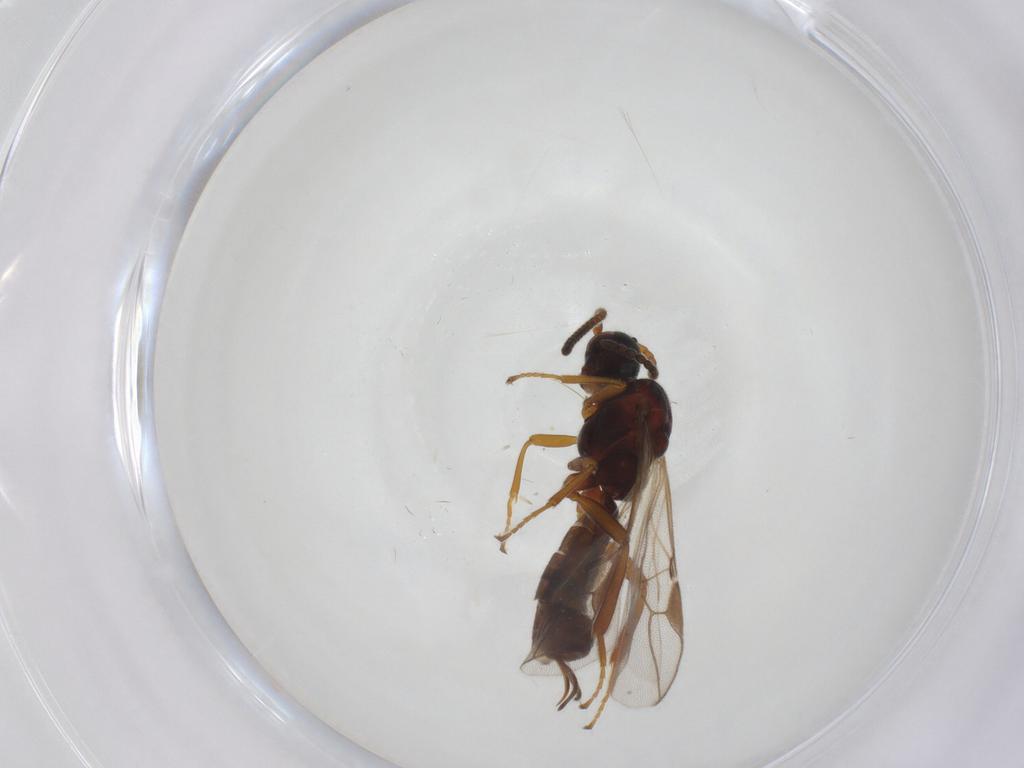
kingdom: Animalia
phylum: Arthropoda
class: Insecta
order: Hymenoptera
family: Braconidae
